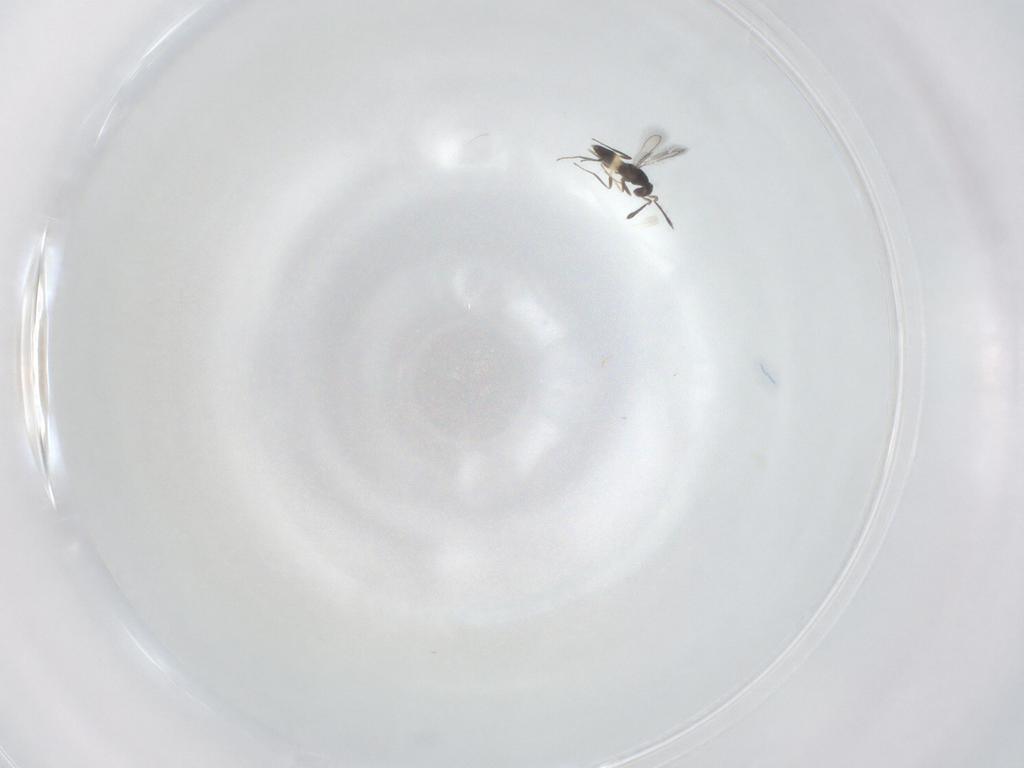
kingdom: Animalia
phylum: Arthropoda
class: Insecta
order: Hymenoptera
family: Mymaridae
